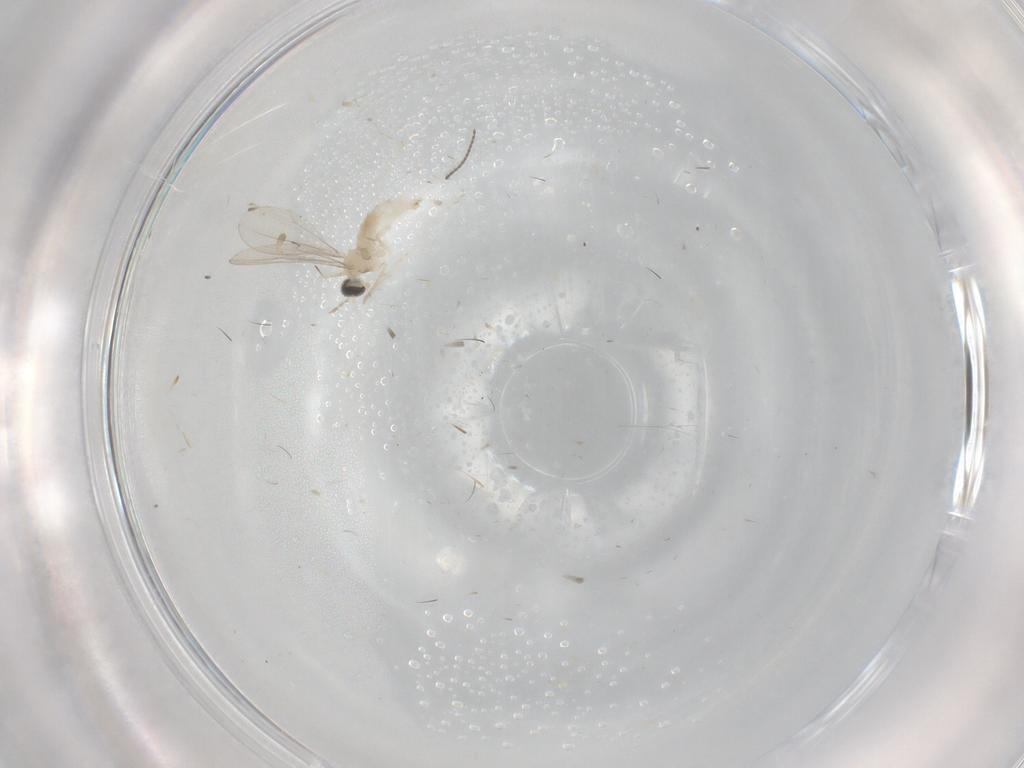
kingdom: Animalia
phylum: Arthropoda
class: Insecta
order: Diptera
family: Cecidomyiidae
